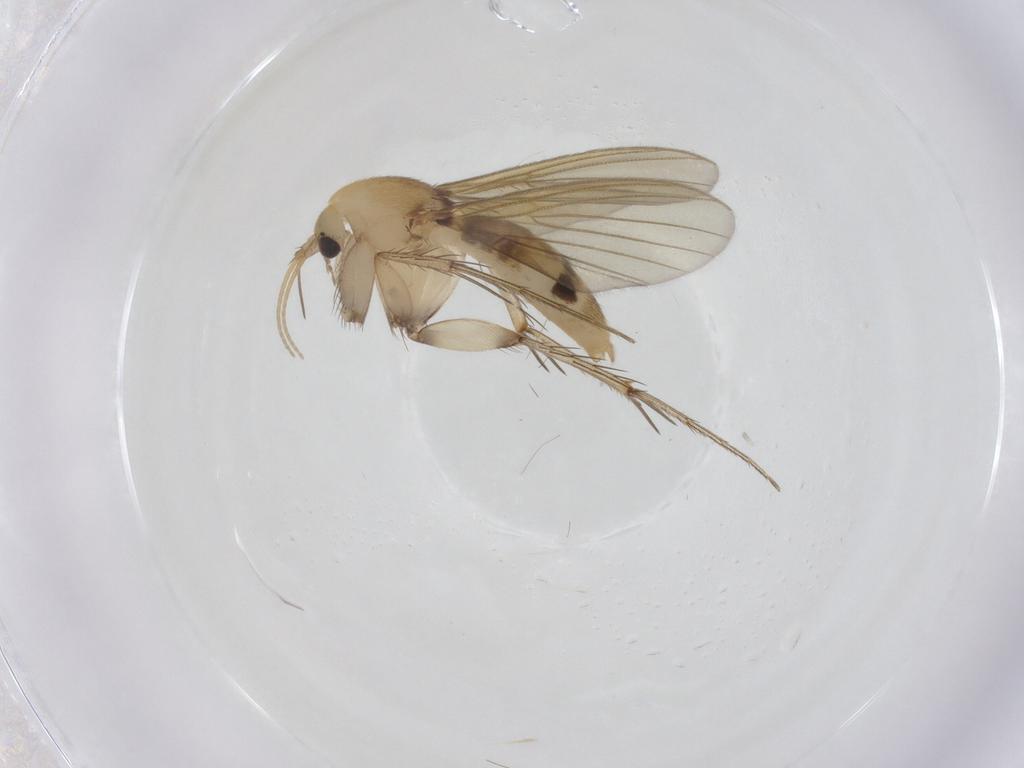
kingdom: Animalia
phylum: Arthropoda
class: Insecta
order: Diptera
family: Mycetophilidae
